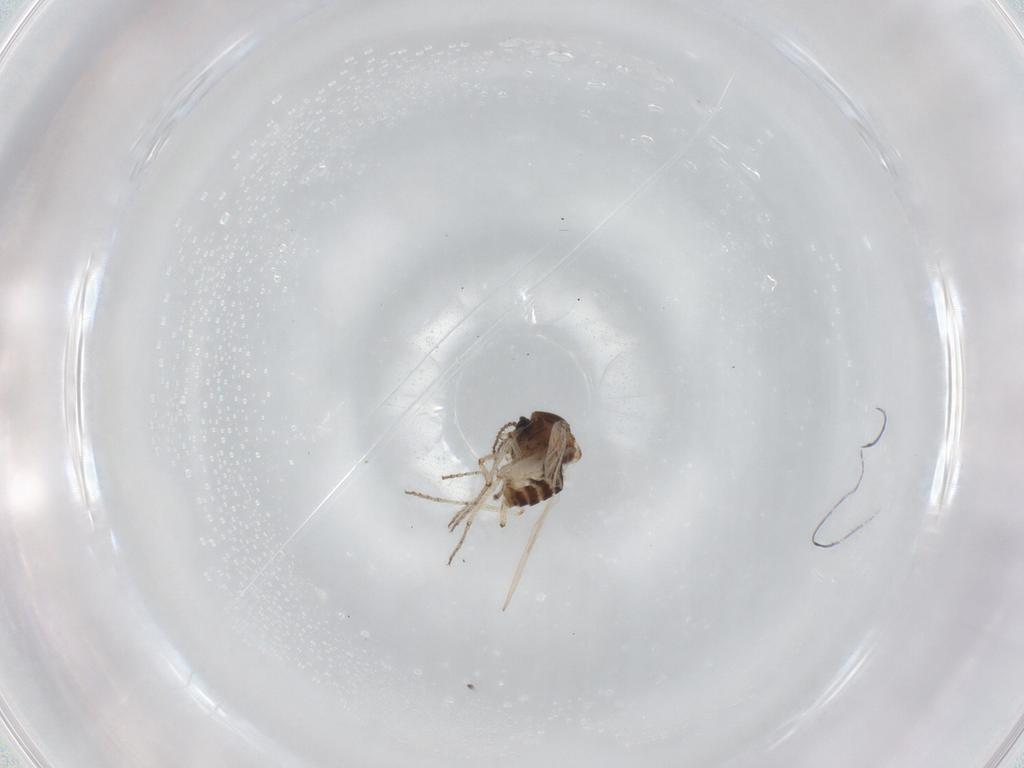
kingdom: Animalia
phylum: Arthropoda
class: Insecta
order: Diptera
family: Ceratopogonidae
